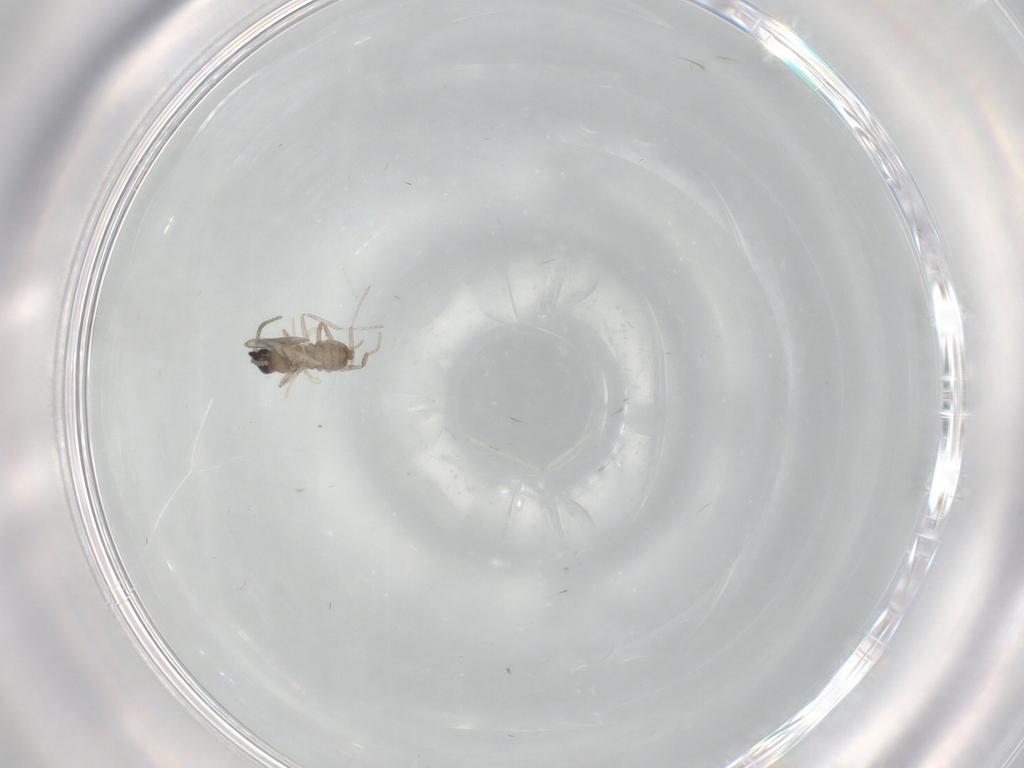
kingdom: Animalia
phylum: Arthropoda
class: Insecta
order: Diptera
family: Cecidomyiidae
